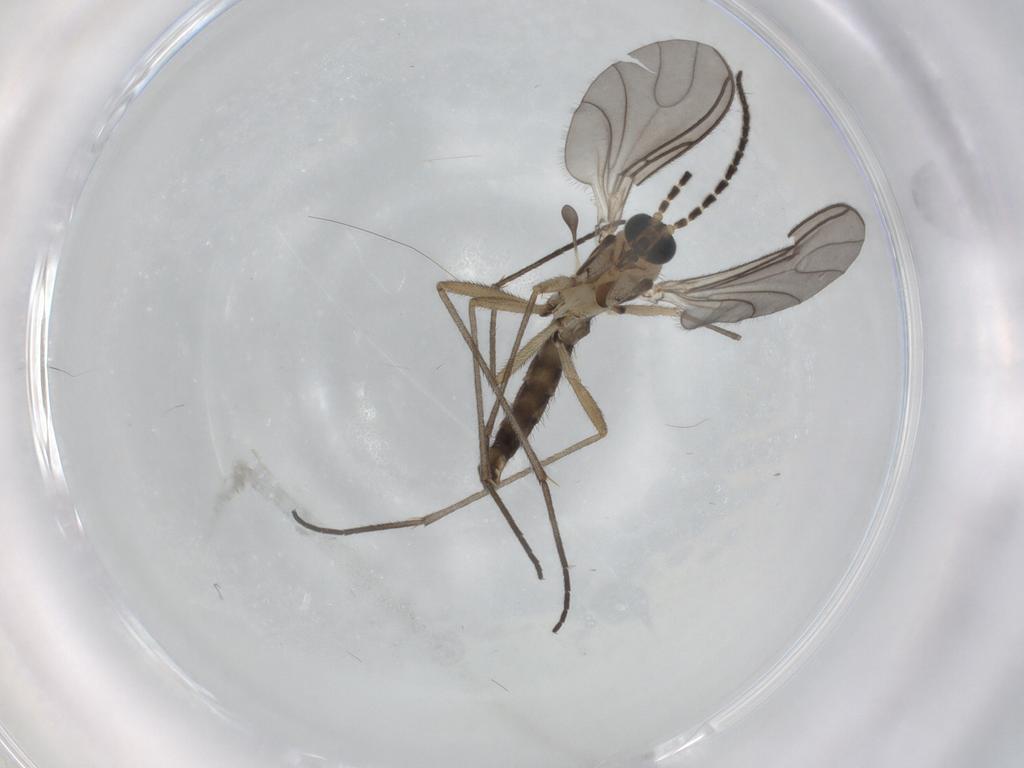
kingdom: Animalia
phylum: Arthropoda
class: Insecta
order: Diptera
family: Sciaridae
